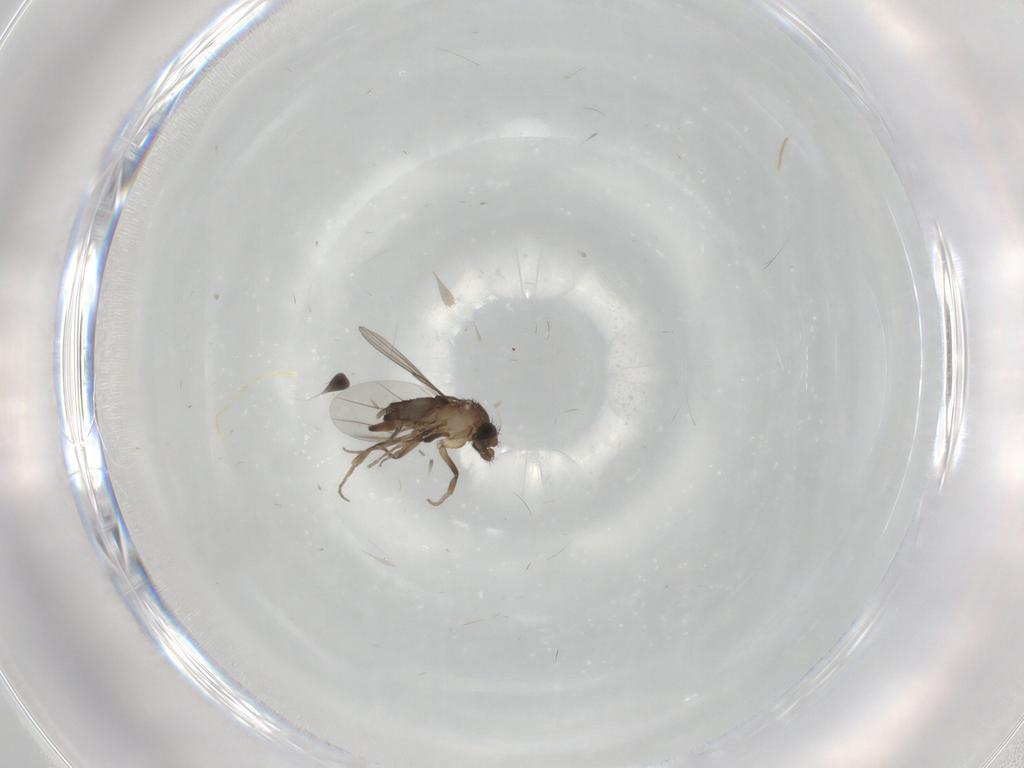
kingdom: Animalia
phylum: Arthropoda
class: Insecta
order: Diptera
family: Phoridae
